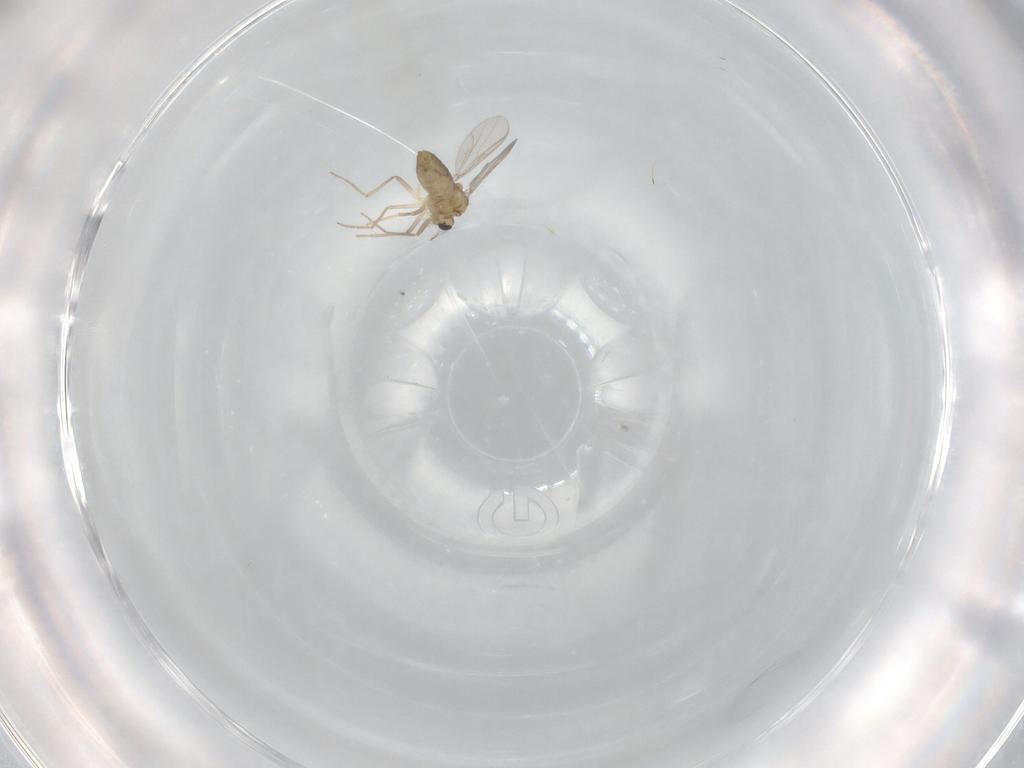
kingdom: Animalia
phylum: Arthropoda
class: Insecta
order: Diptera
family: Chironomidae
